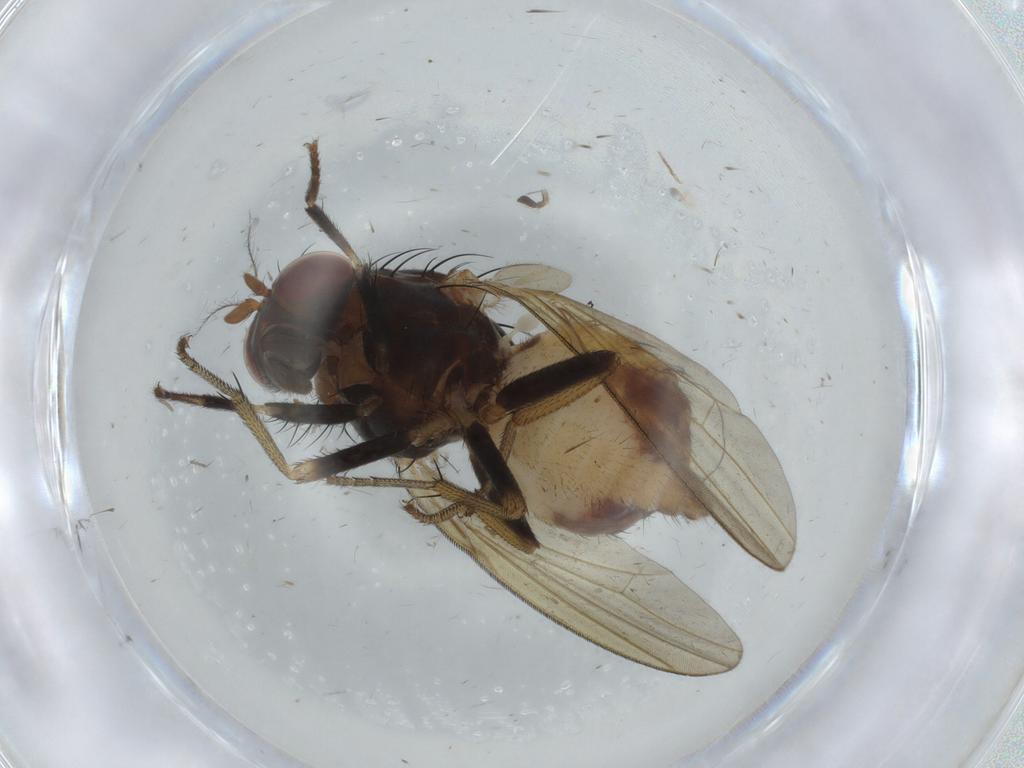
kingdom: Animalia
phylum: Arthropoda
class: Insecta
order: Diptera
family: Lauxaniidae
